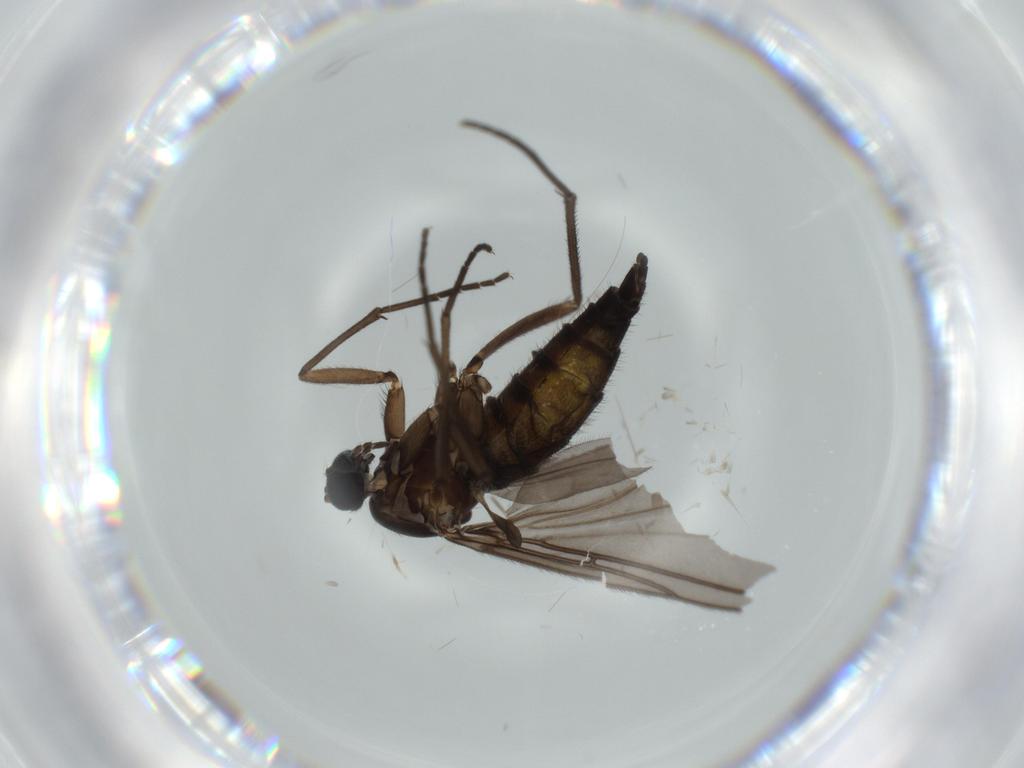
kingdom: Animalia
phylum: Arthropoda
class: Insecta
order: Diptera
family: Sciaridae
